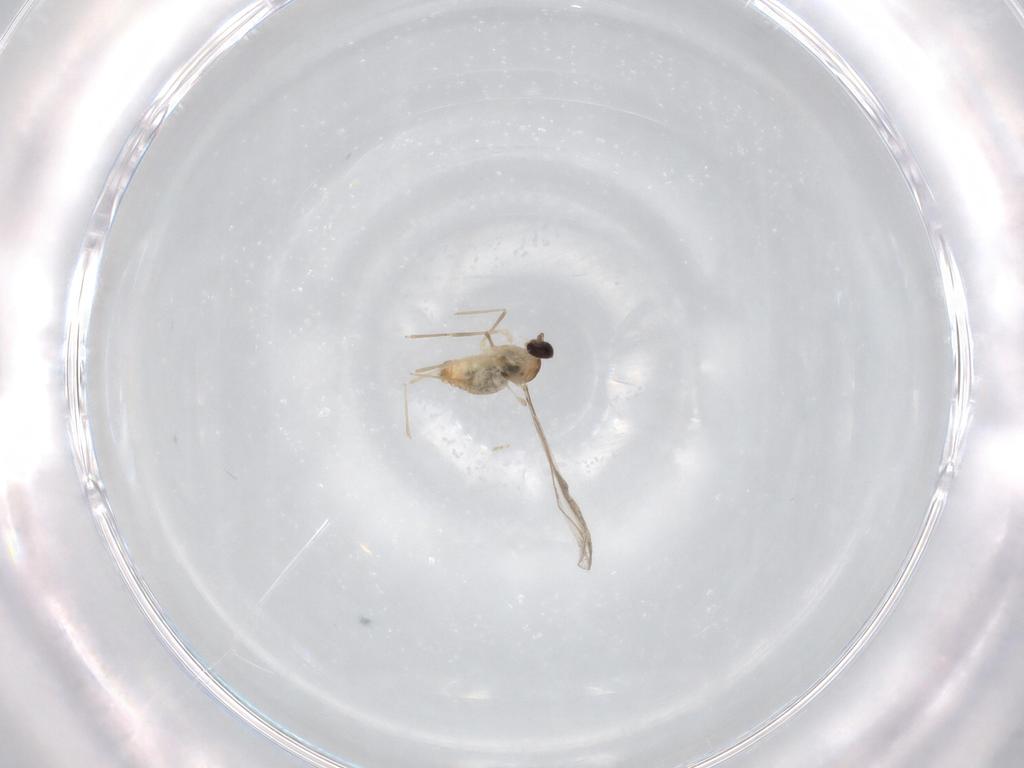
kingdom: Animalia
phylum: Arthropoda
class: Insecta
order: Diptera
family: Cecidomyiidae
